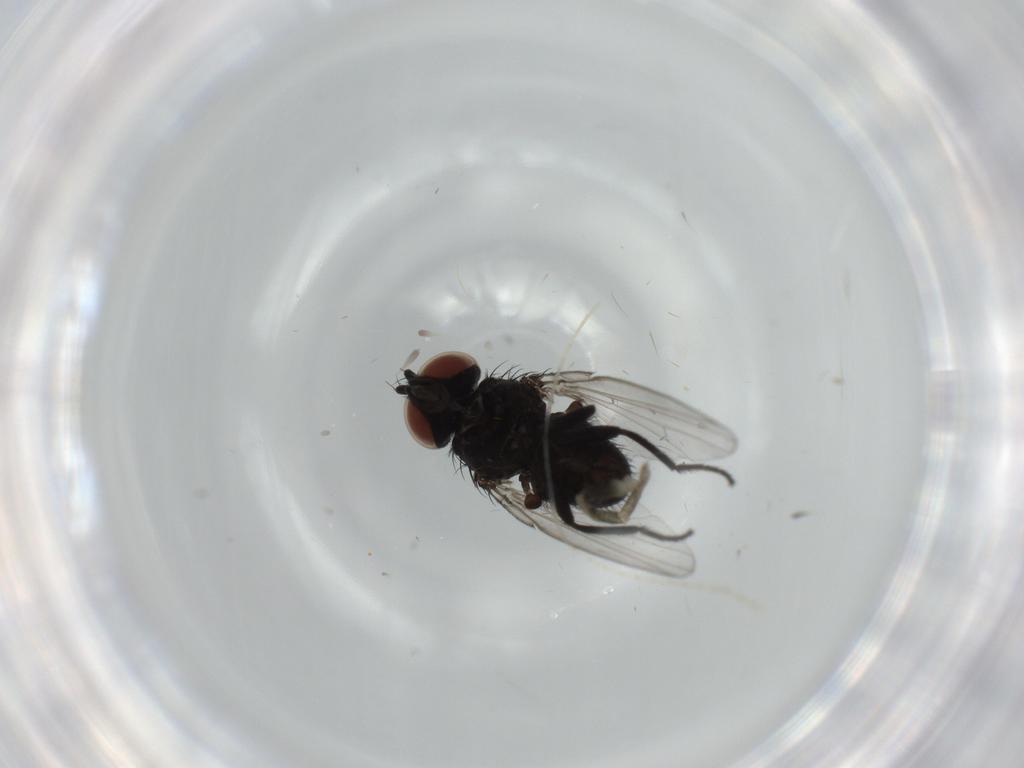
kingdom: Animalia
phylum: Arthropoda
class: Insecta
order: Diptera
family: Milichiidae
